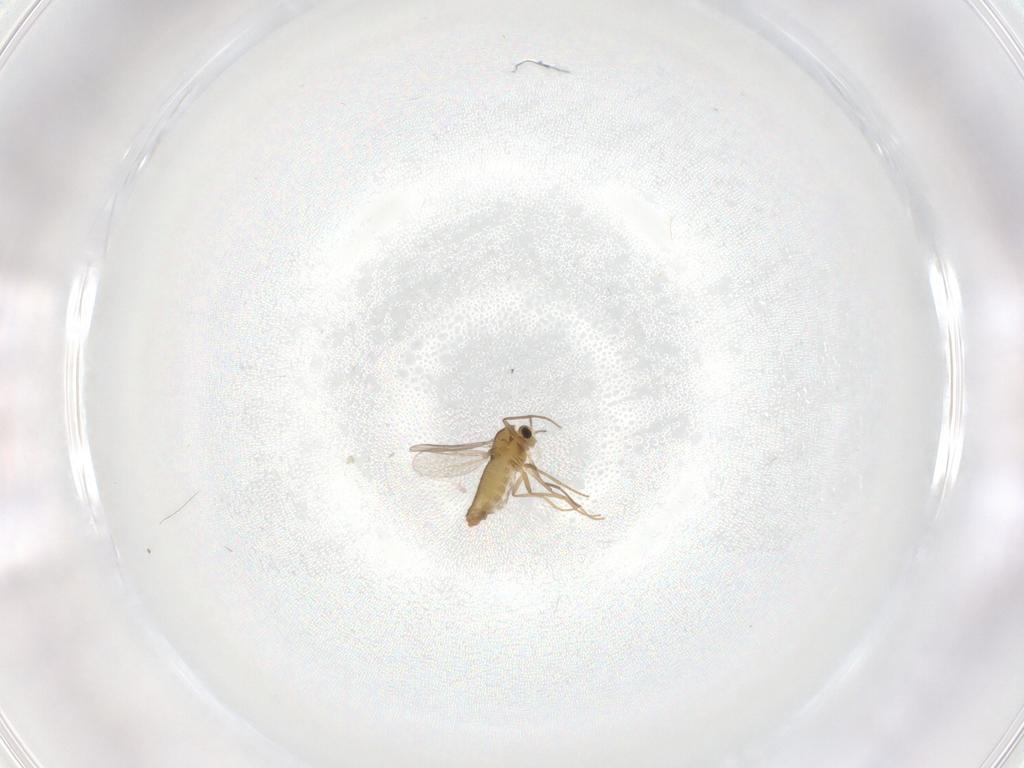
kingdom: Animalia
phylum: Arthropoda
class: Insecta
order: Diptera
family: Chironomidae
